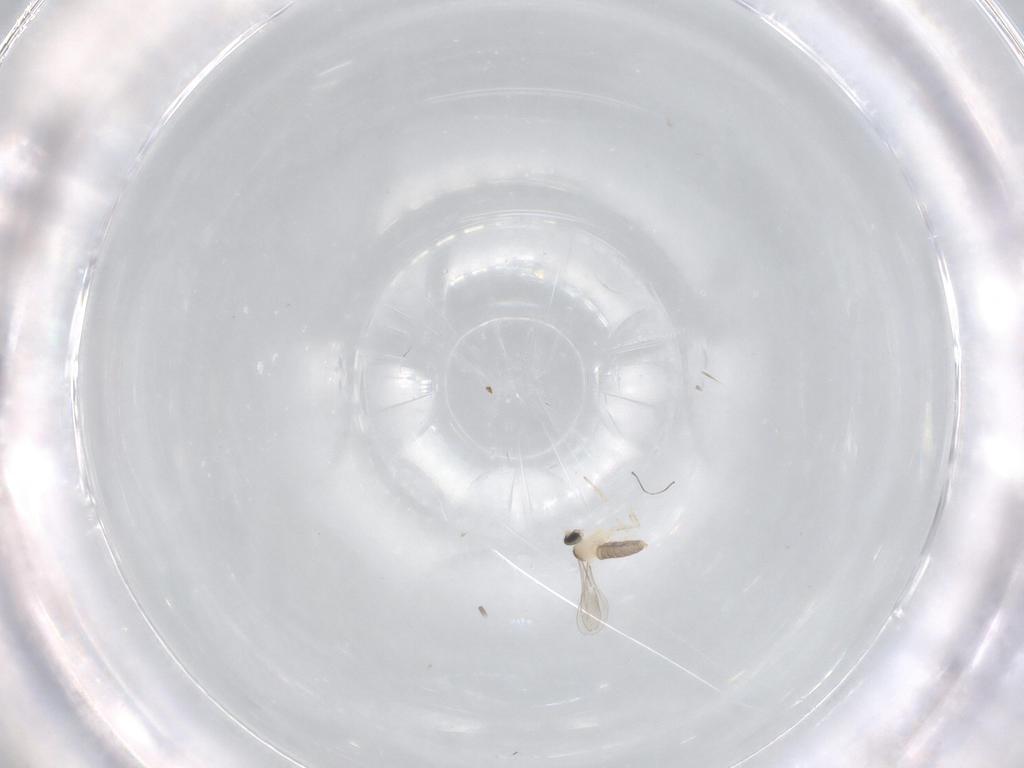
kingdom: Animalia
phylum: Arthropoda
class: Insecta
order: Diptera
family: Cecidomyiidae
